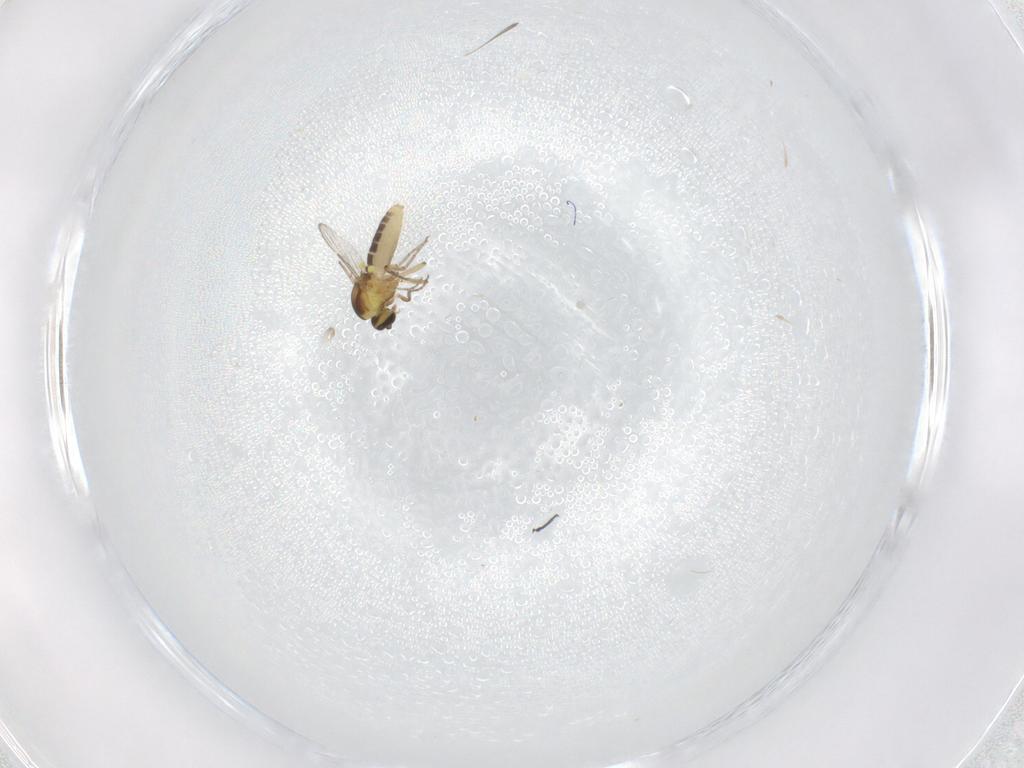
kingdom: Animalia
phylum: Arthropoda
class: Insecta
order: Diptera
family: Ceratopogonidae
